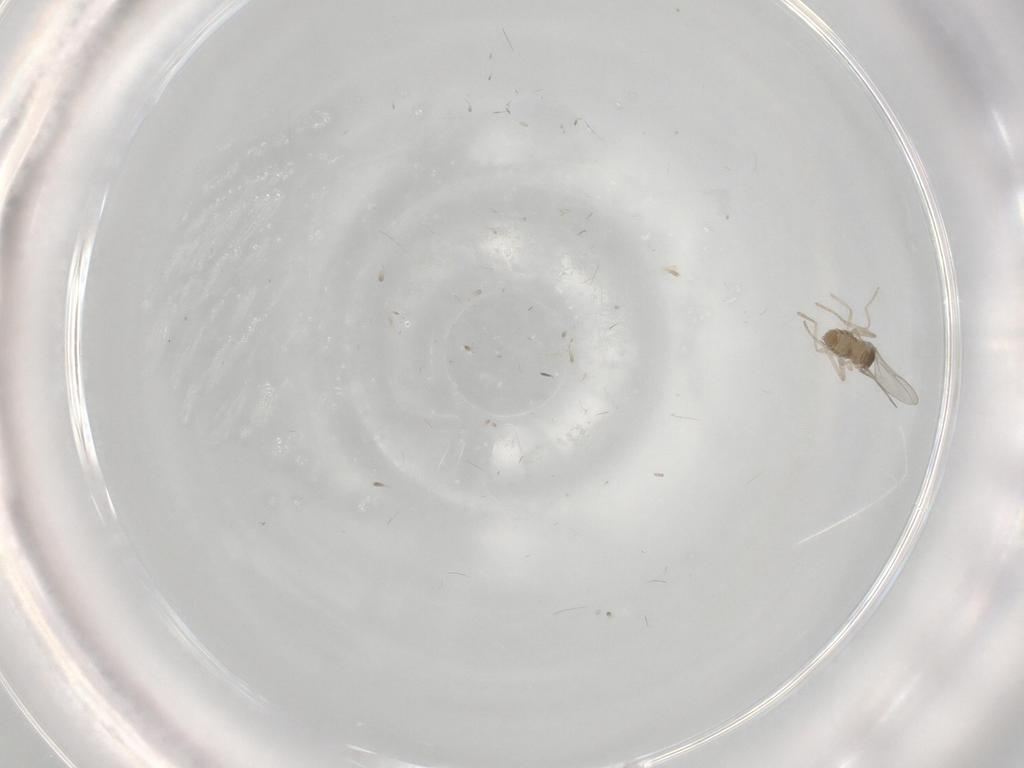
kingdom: Animalia
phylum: Arthropoda
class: Insecta
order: Diptera
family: Cecidomyiidae
